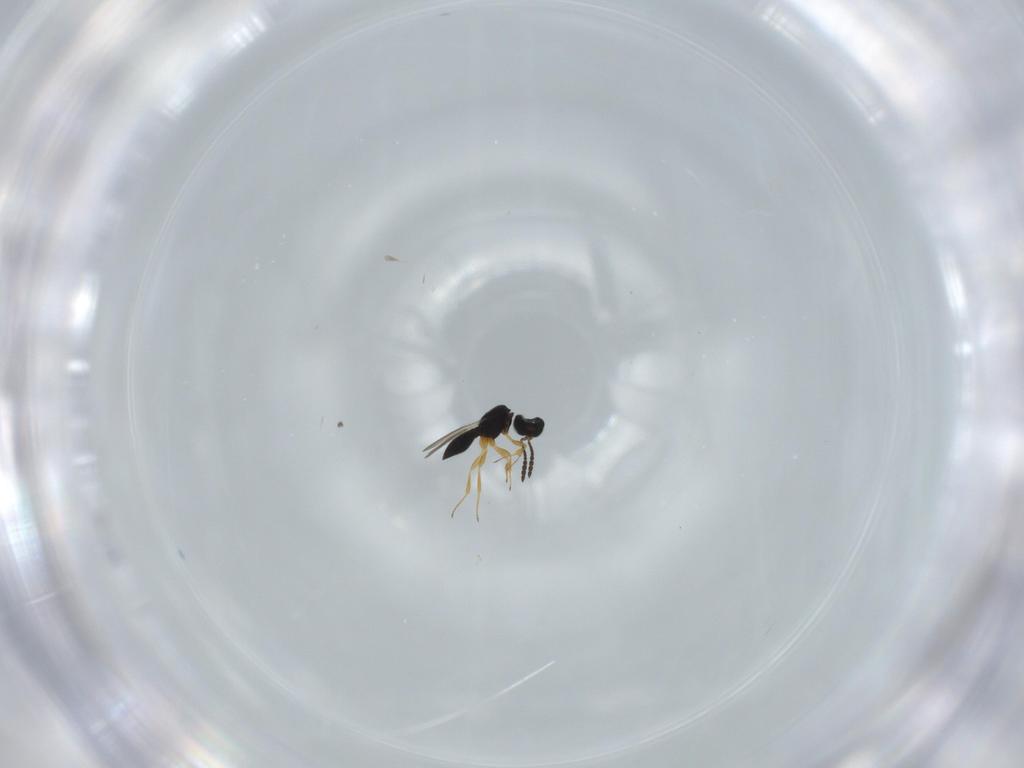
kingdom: Animalia
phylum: Arthropoda
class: Insecta
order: Hymenoptera
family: Scelionidae
